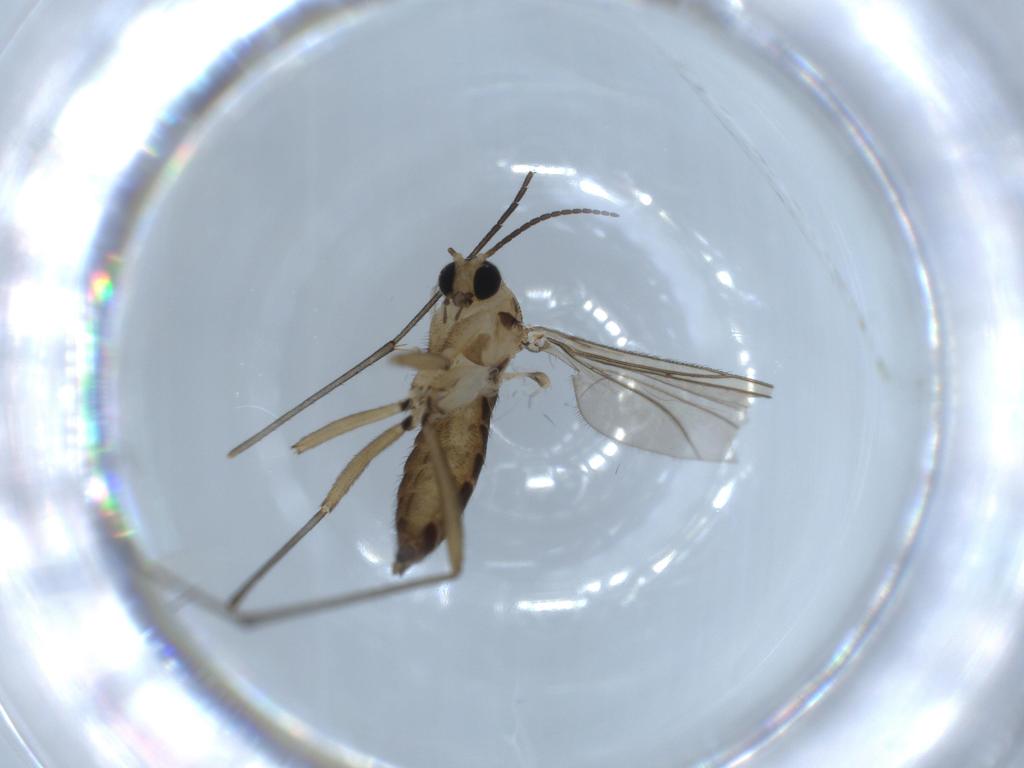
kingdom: Animalia
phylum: Arthropoda
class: Insecta
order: Diptera
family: Sciaridae
